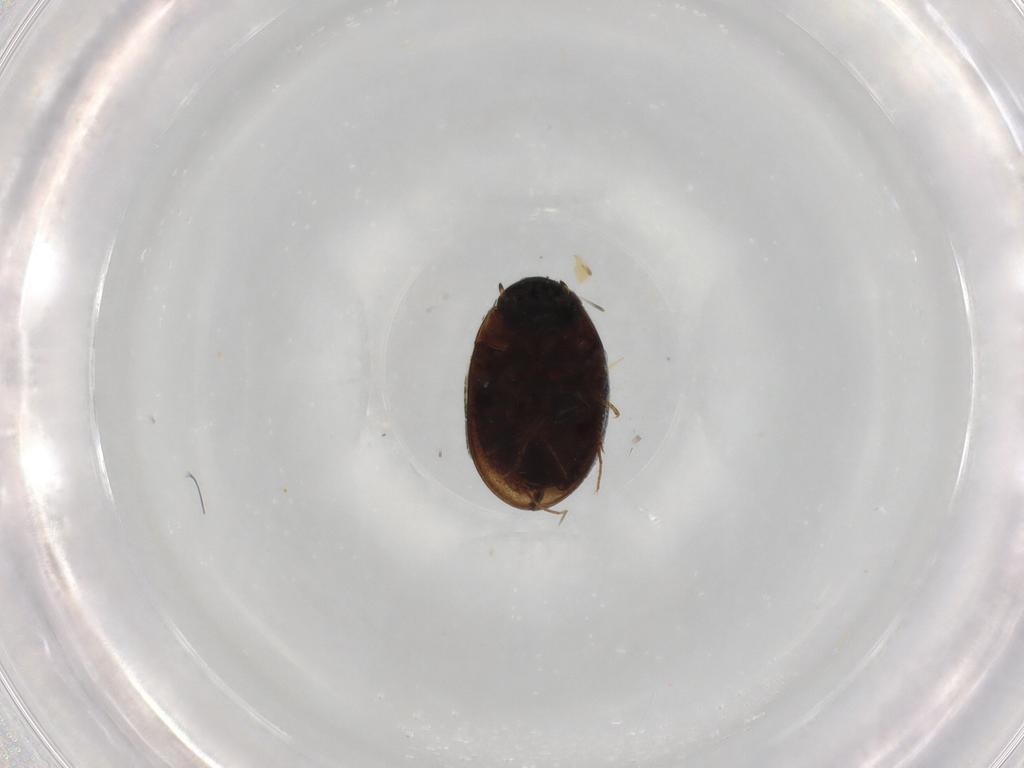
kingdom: Animalia
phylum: Arthropoda
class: Insecta
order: Coleoptera
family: Hydrophilidae
